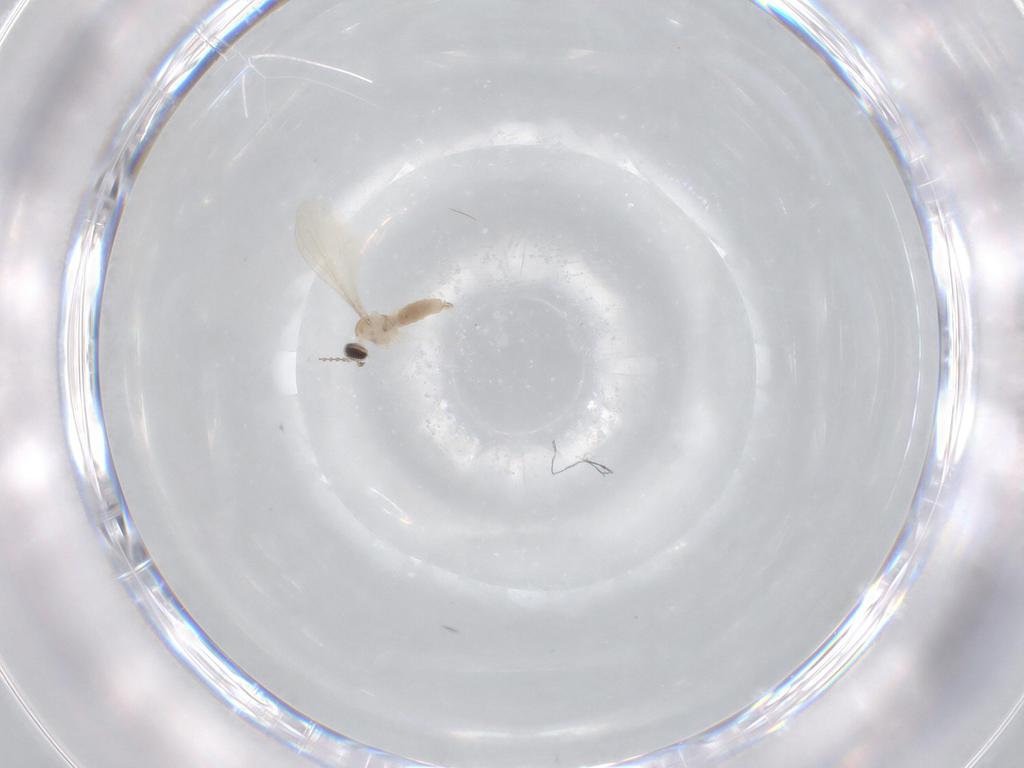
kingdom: Animalia
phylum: Arthropoda
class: Insecta
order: Diptera
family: Cecidomyiidae
